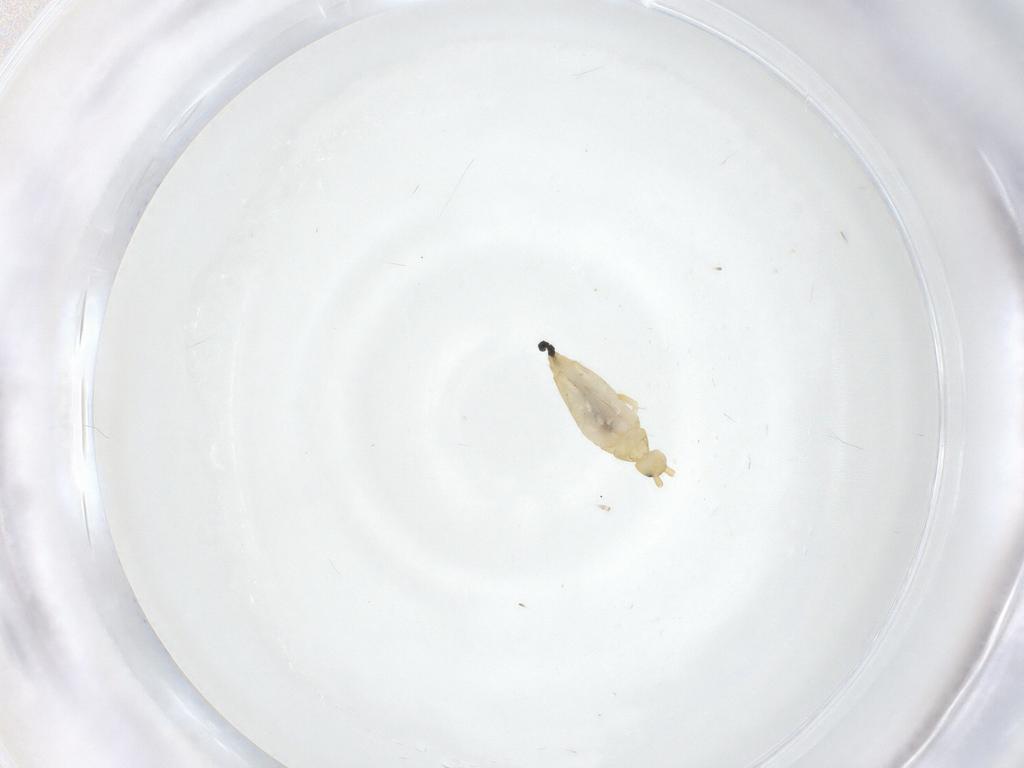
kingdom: Animalia
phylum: Arthropoda
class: Collembola
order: Entomobryomorpha
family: Entomobryidae
